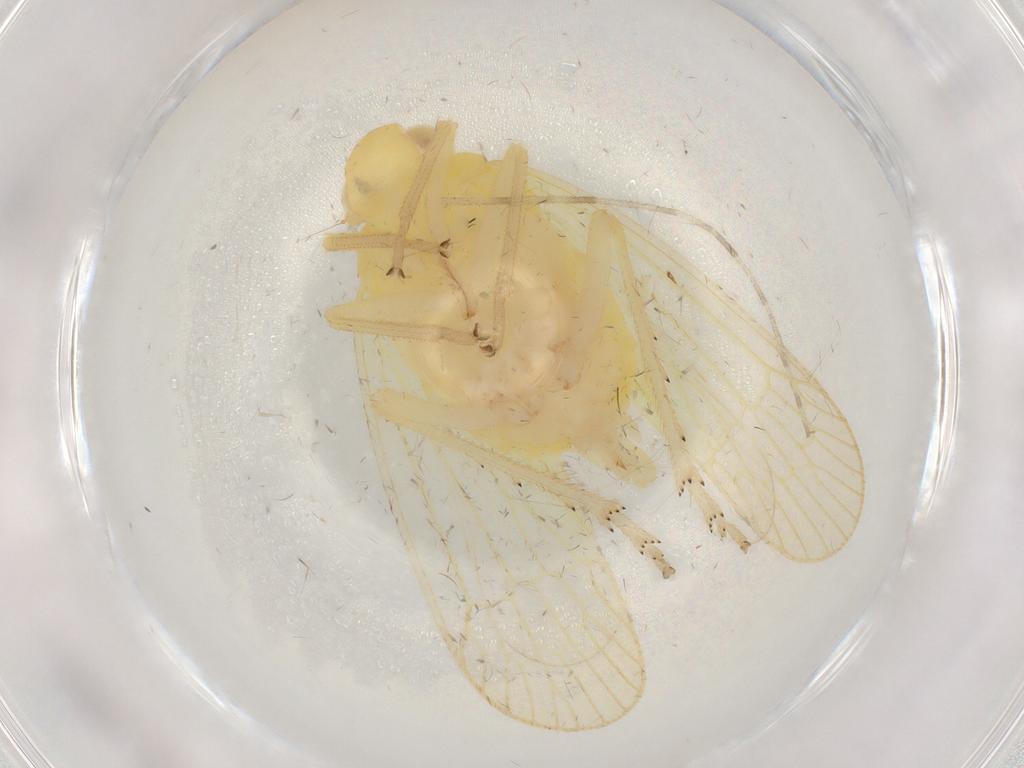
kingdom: Animalia
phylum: Arthropoda
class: Insecta
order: Hemiptera
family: Tropiduchidae
